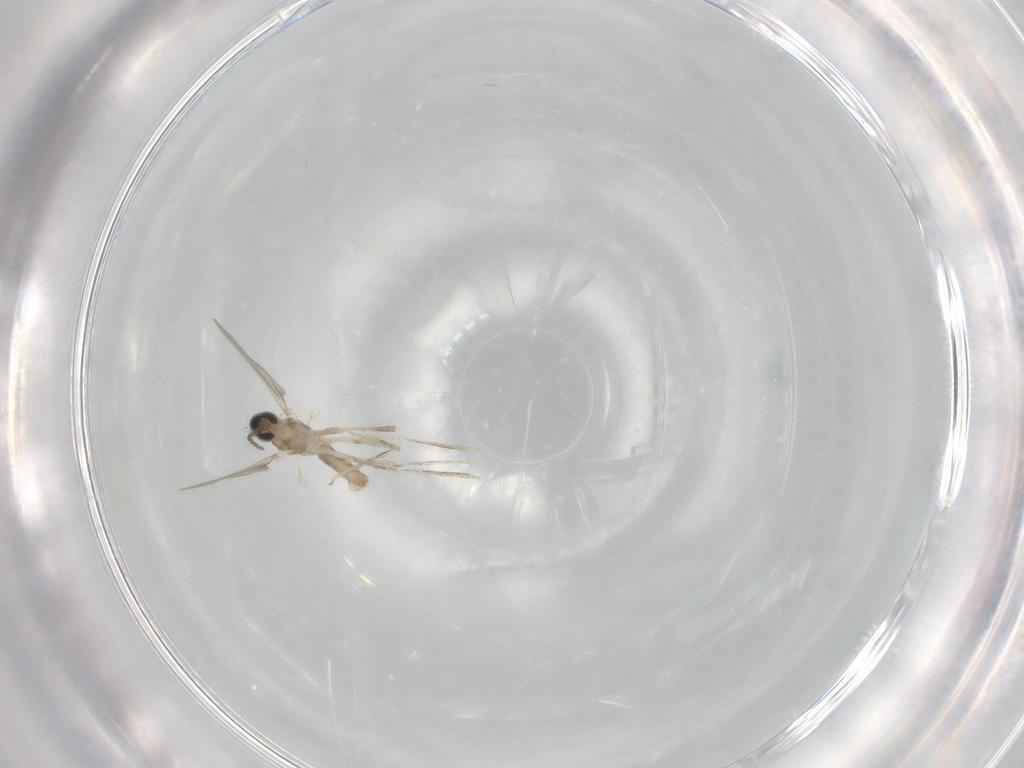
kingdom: Animalia
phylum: Arthropoda
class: Insecta
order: Diptera
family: Cecidomyiidae
